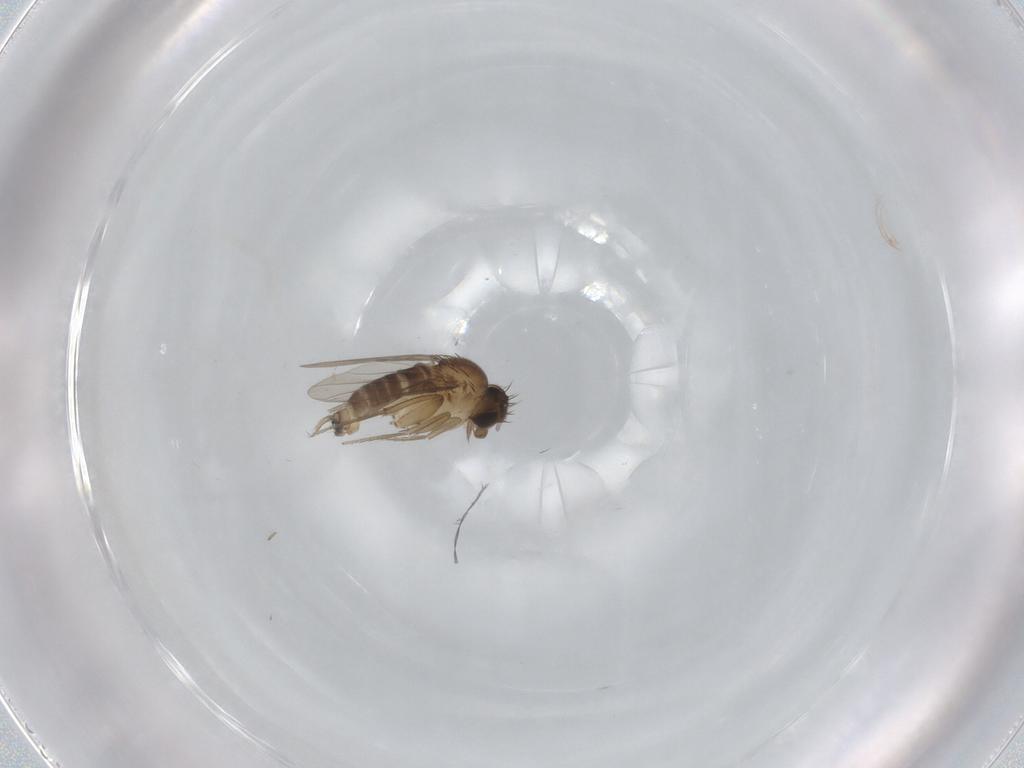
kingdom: Animalia
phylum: Arthropoda
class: Insecta
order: Diptera
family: Phoridae
